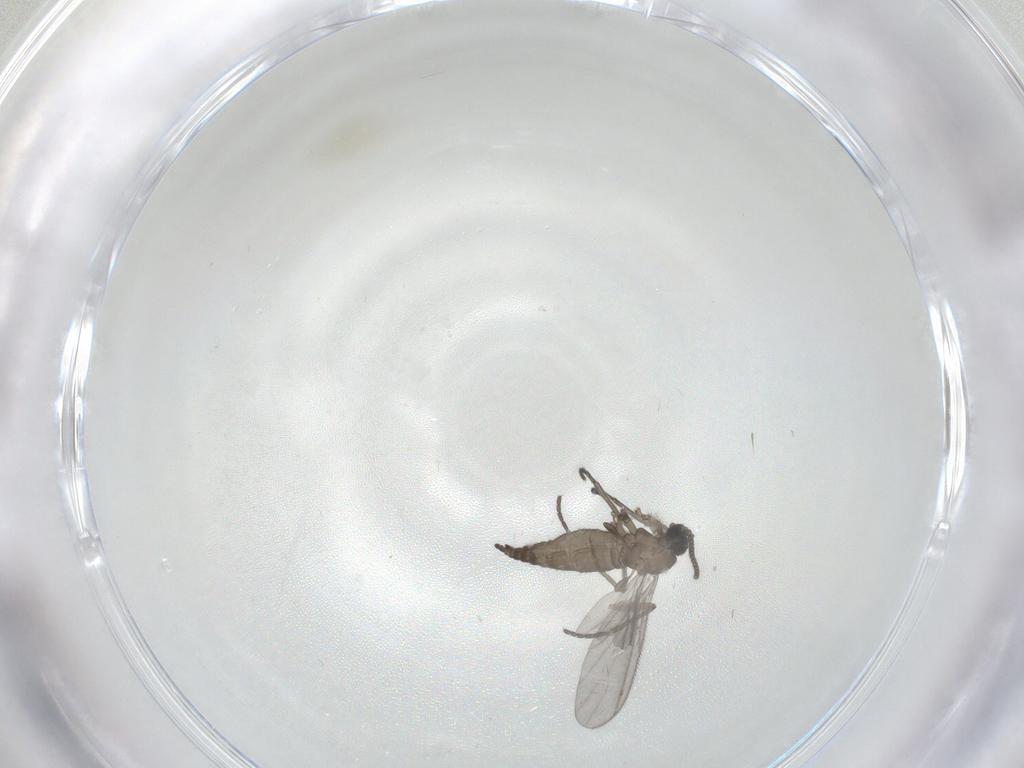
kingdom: Animalia
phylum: Arthropoda
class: Insecta
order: Diptera
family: Sciaridae
